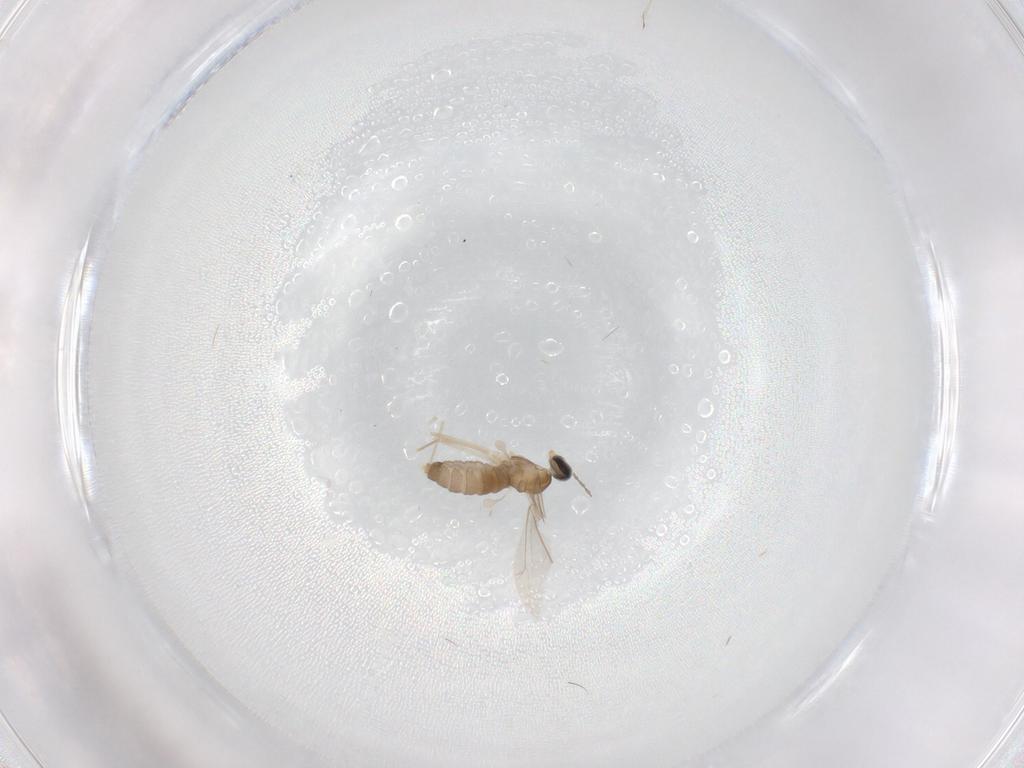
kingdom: Animalia
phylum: Arthropoda
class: Insecta
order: Diptera
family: Cecidomyiidae
